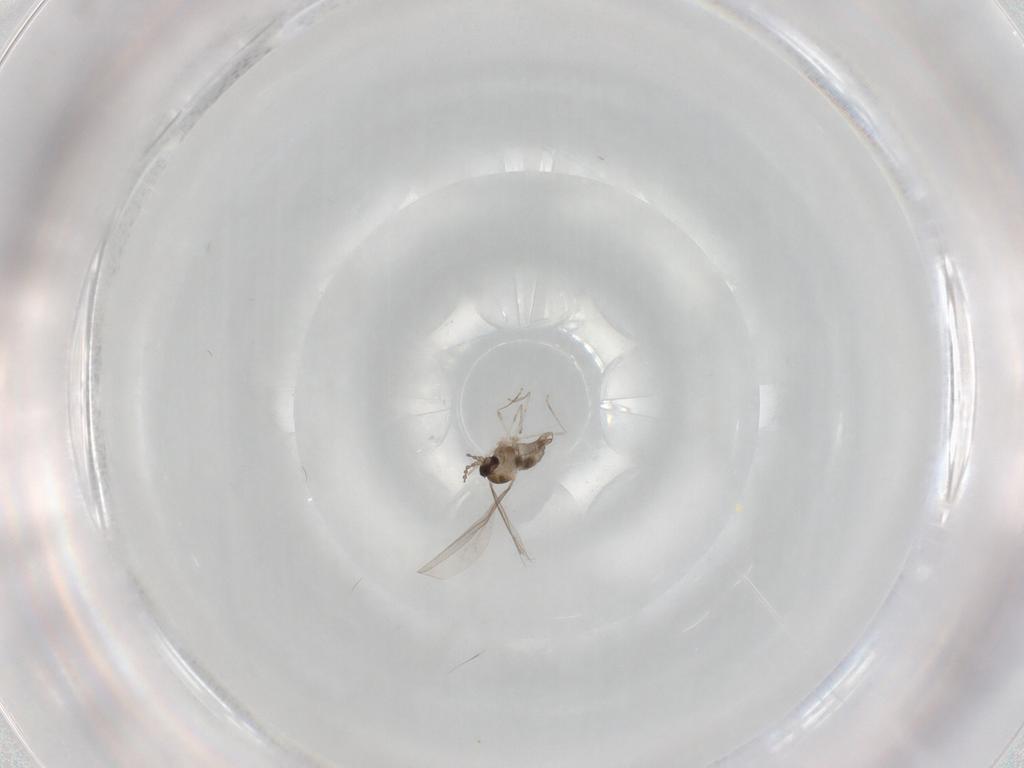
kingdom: Animalia
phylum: Arthropoda
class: Insecta
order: Diptera
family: Cecidomyiidae
